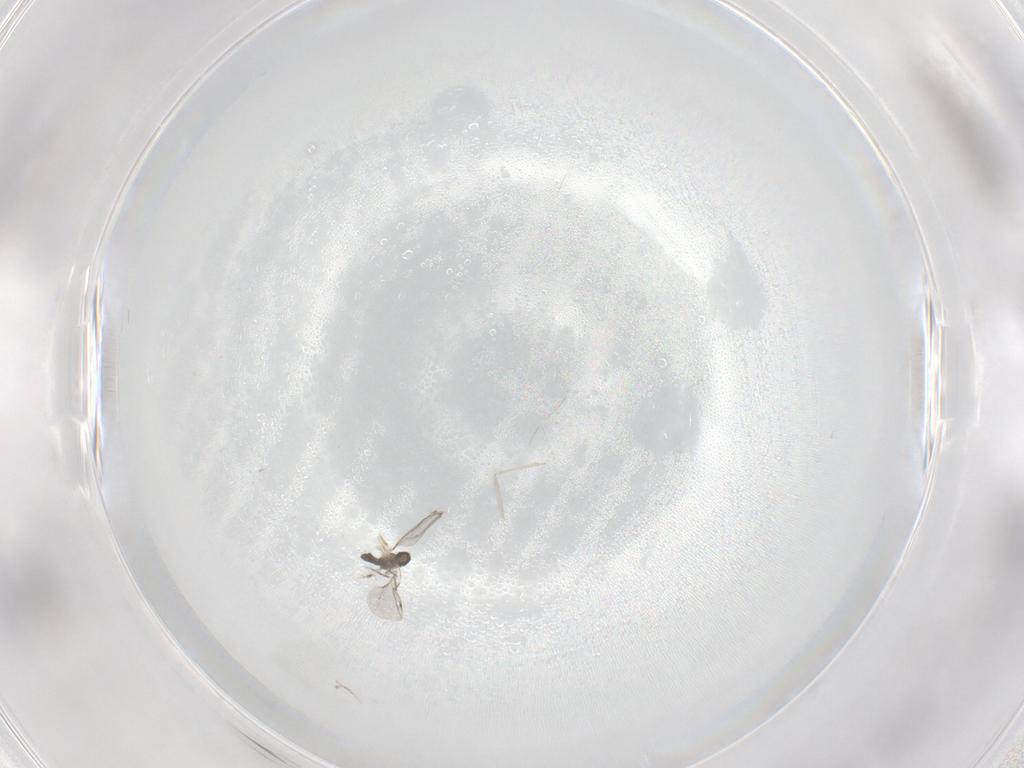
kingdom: Animalia
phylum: Arthropoda
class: Insecta
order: Diptera
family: Cecidomyiidae
